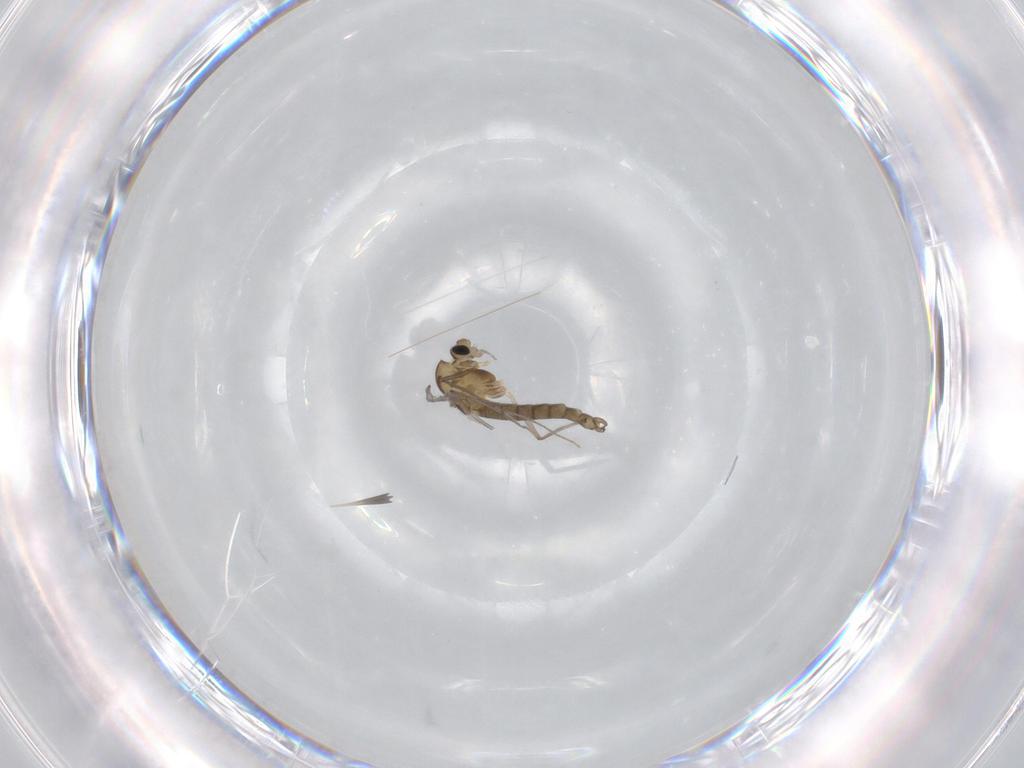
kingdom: Animalia
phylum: Arthropoda
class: Insecta
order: Diptera
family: Chironomidae
